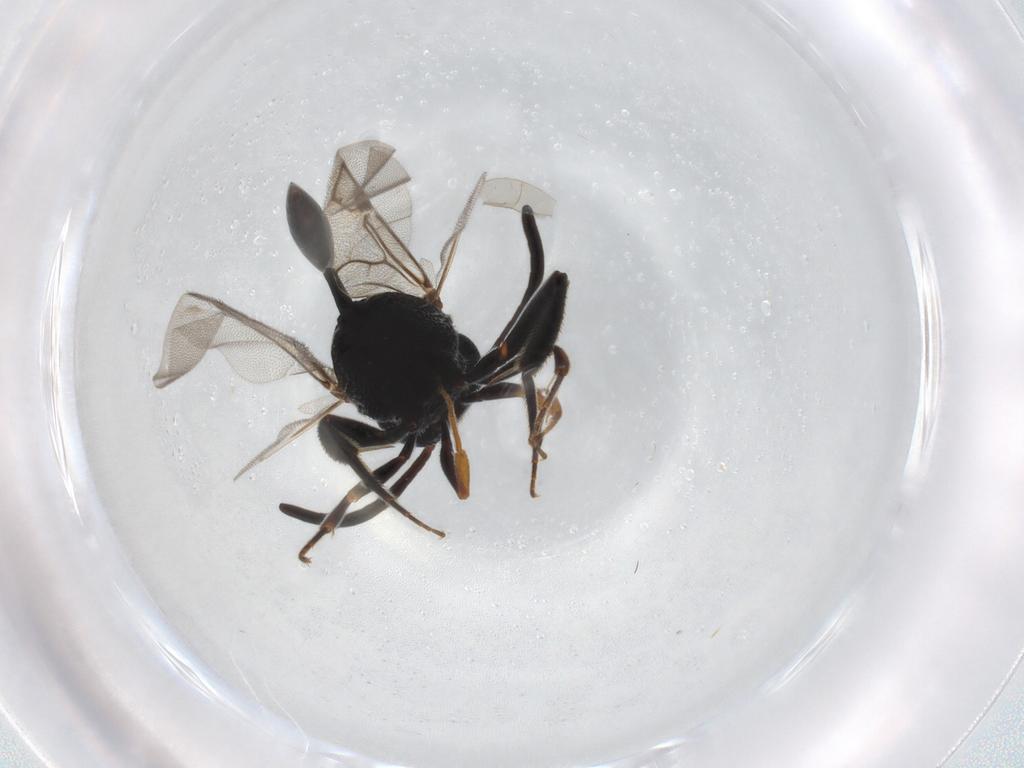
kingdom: Animalia
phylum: Arthropoda
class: Insecta
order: Hymenoptera
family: Evaniidae
